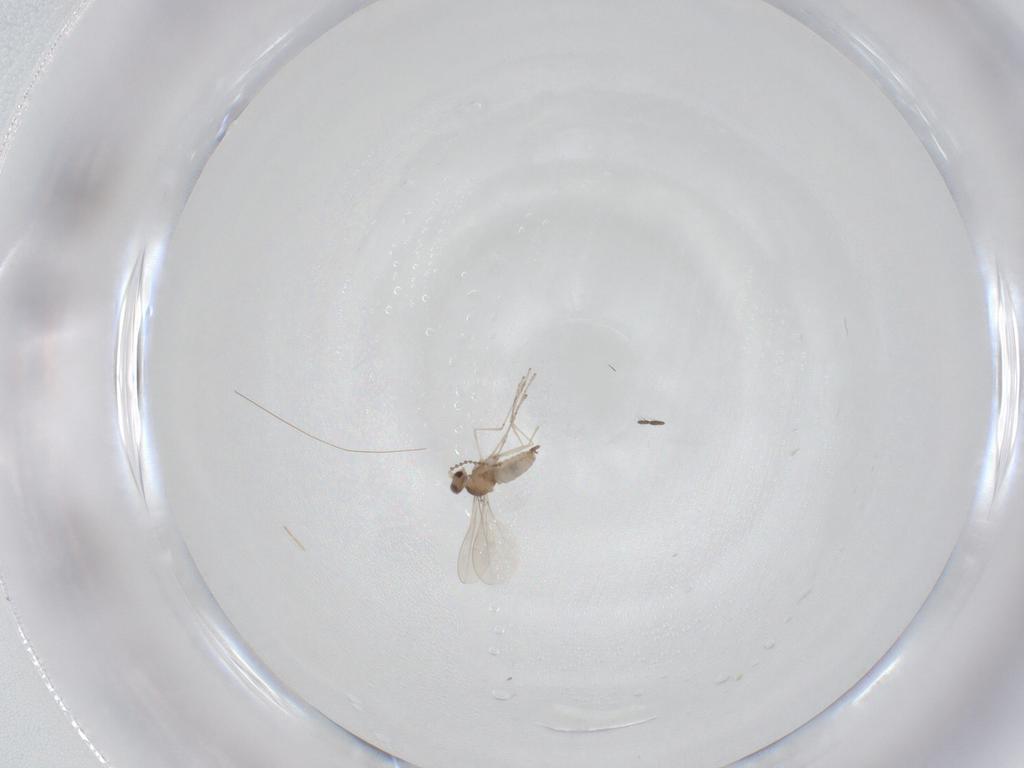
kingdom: Animalia
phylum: Arthropoda
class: Insecta
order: Diptera
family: Cecidomyiidae
